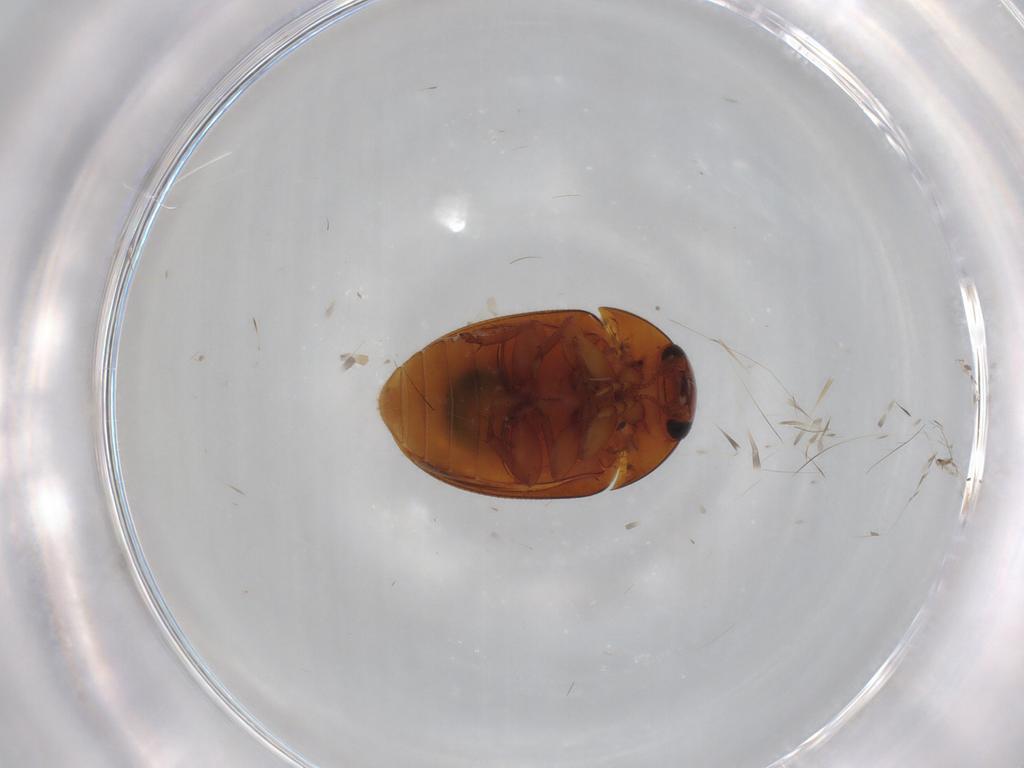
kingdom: Animalia
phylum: Arthropoda
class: Insecta
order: Coleoptera
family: Phalacridae
